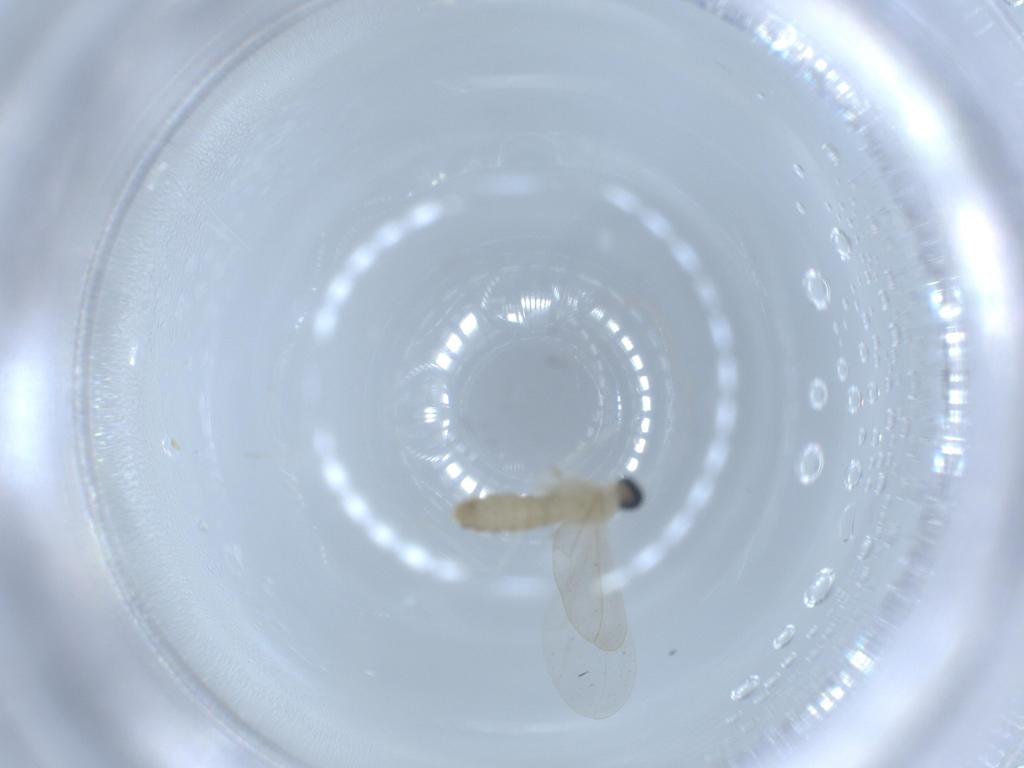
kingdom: Animalia
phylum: Arthropoda
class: Insecta
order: Diptera
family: Cecidomyiidae
